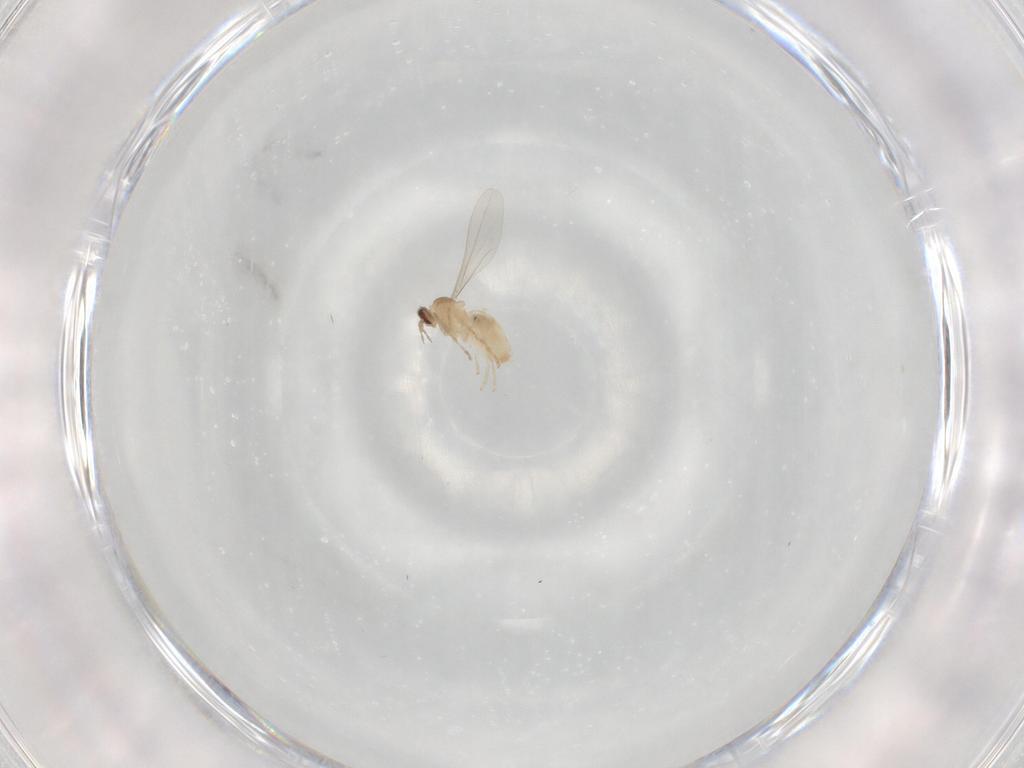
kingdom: Animalia
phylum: Arthropoda
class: Insecta
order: Diptera
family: Cecidomyiidae
